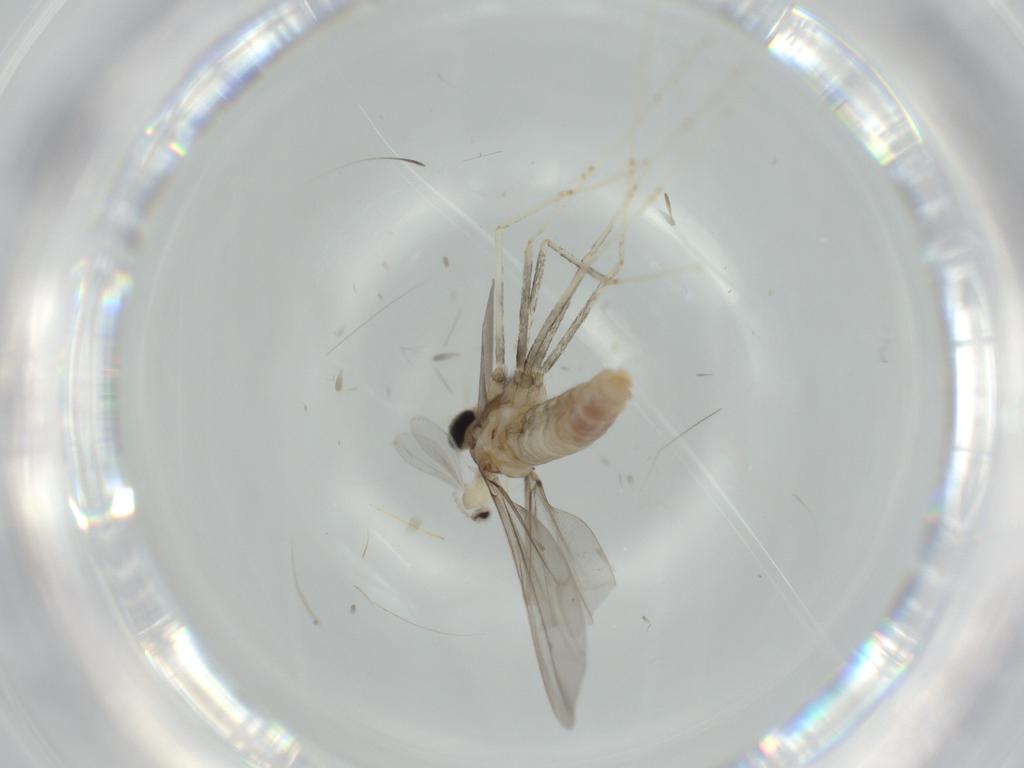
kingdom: Animalia
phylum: Arthropoda
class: Insecta
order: Diptera
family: Cecidomyiidae
